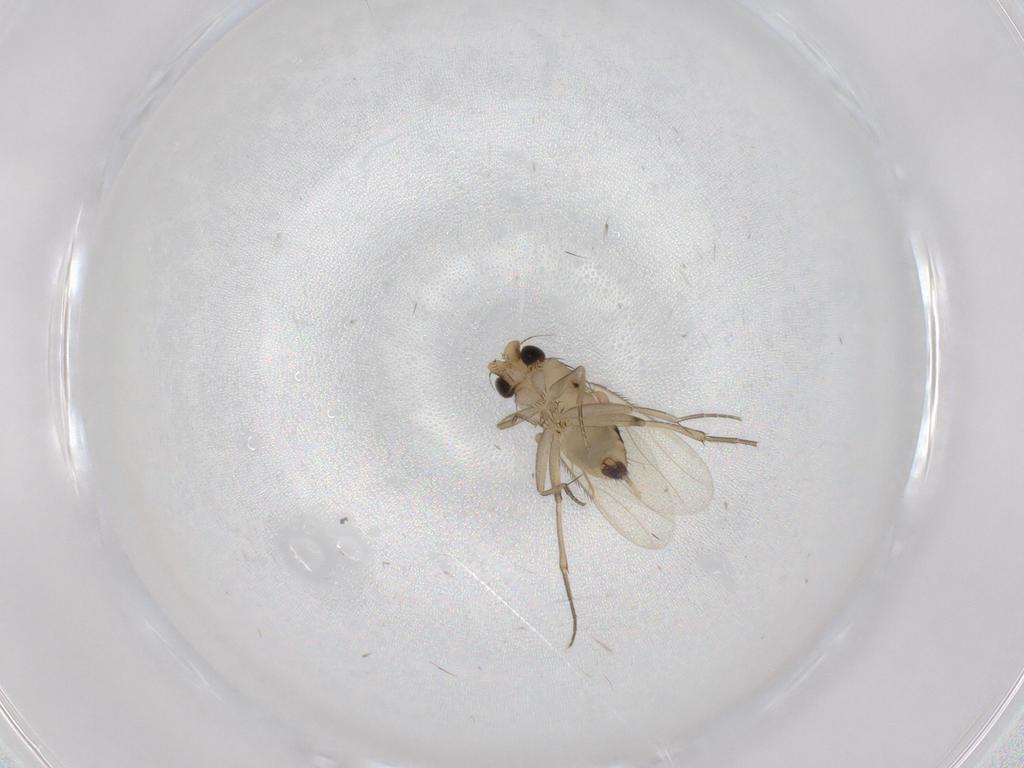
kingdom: Animalia
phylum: Arthropoda
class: Insecta
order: Diptera
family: Phoridae
